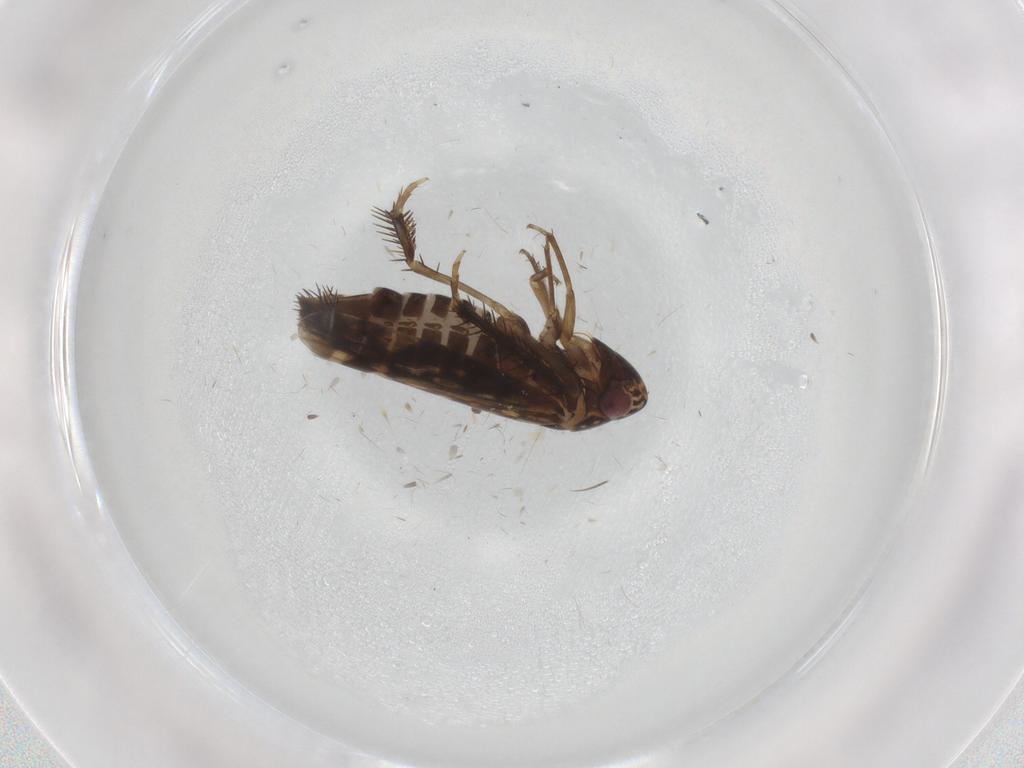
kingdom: Animalia
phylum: Arthropoda
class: Insecta
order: Hemiptera
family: Cicadellidae
